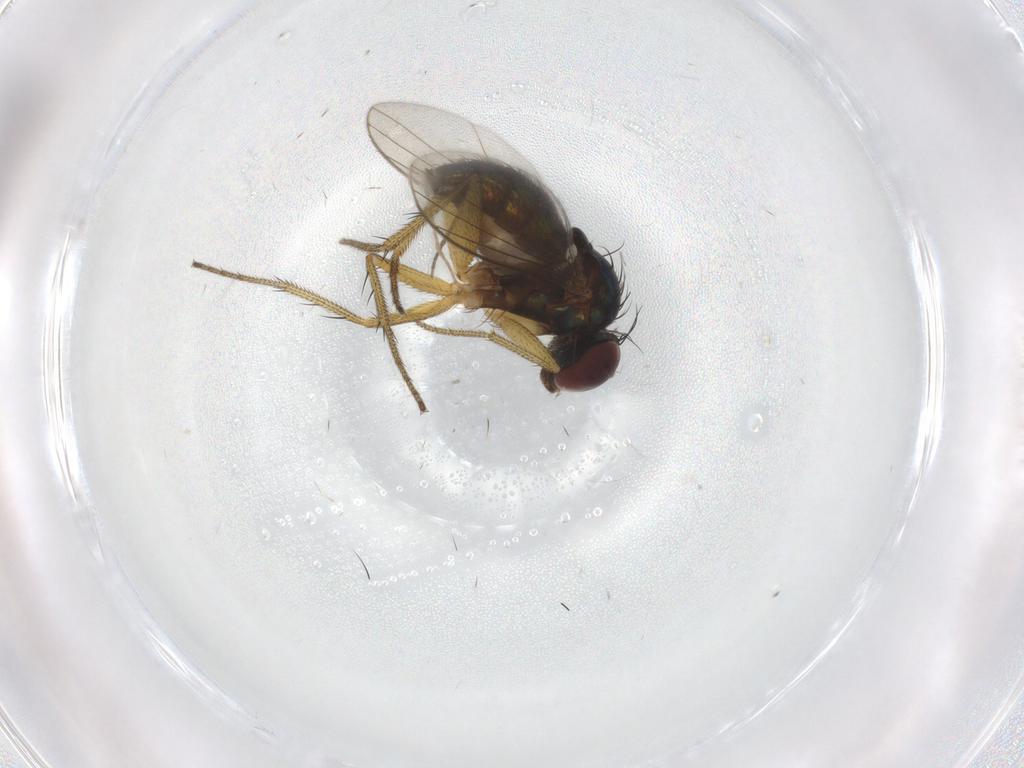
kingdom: Animalia
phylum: Arthropoda
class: Insecta
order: Diptera
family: Dolichopodidae
